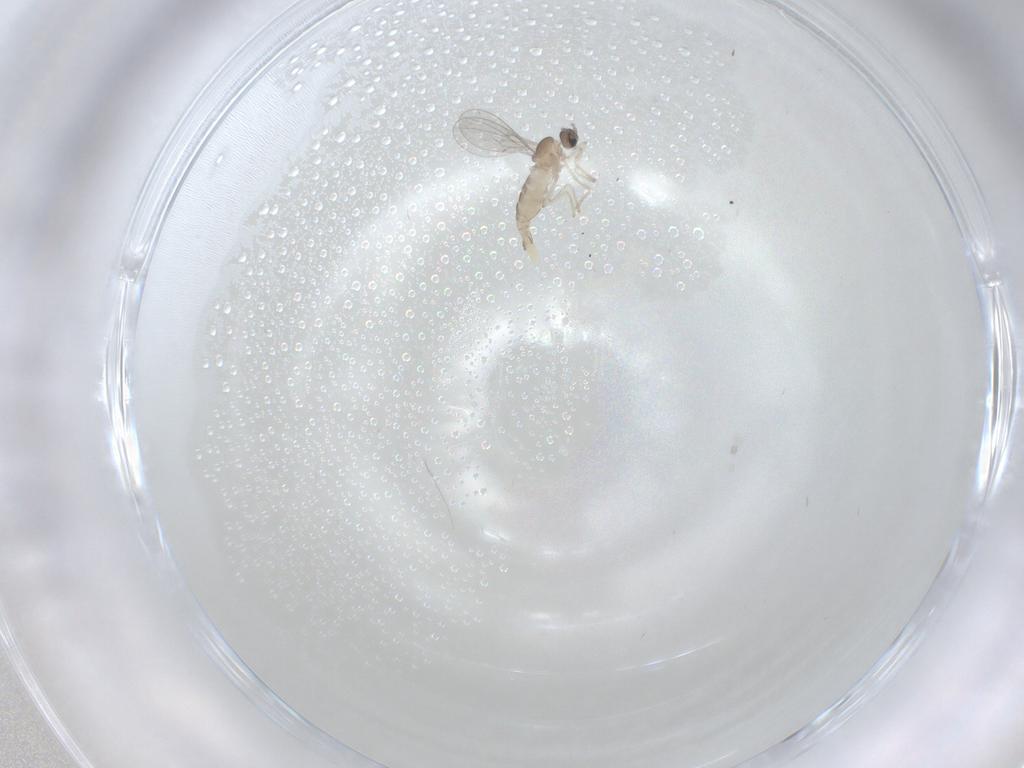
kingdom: Animalia
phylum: Arthropoda
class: Insecta
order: Diptera
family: Cecidomyiidae
